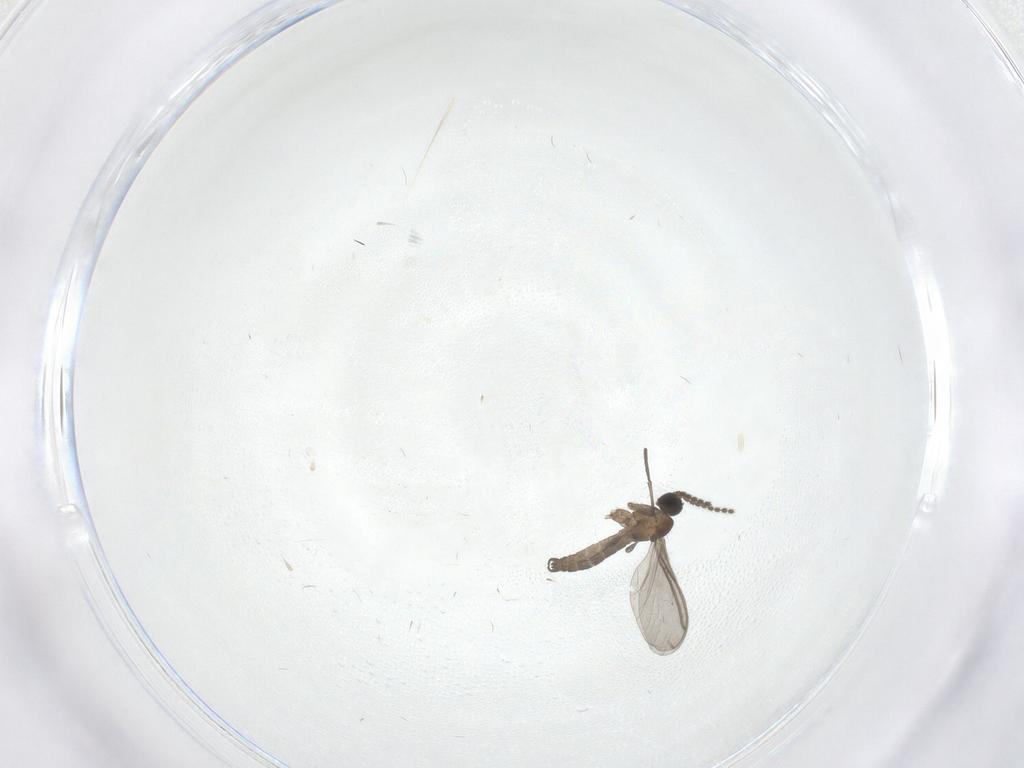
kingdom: Animalia
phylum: Arthropoda
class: Insecta
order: Diptera
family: Sciaridae
